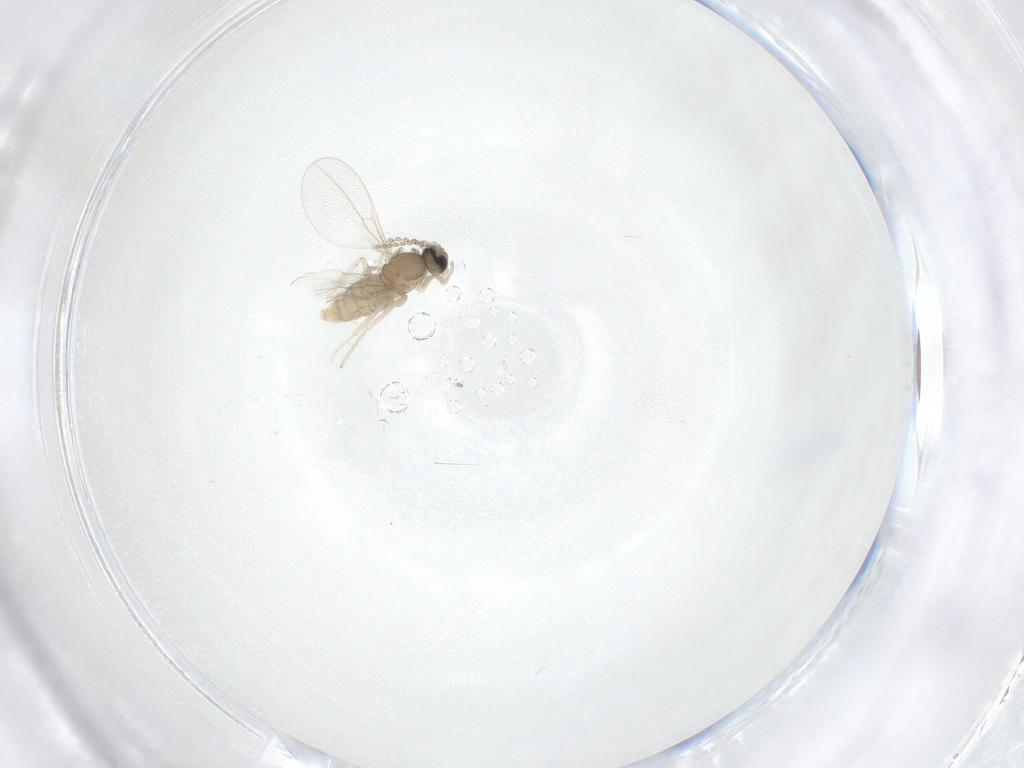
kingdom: Animalia
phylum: Arthropoda
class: Insecta
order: Diptera
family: Cecidomyiidae
